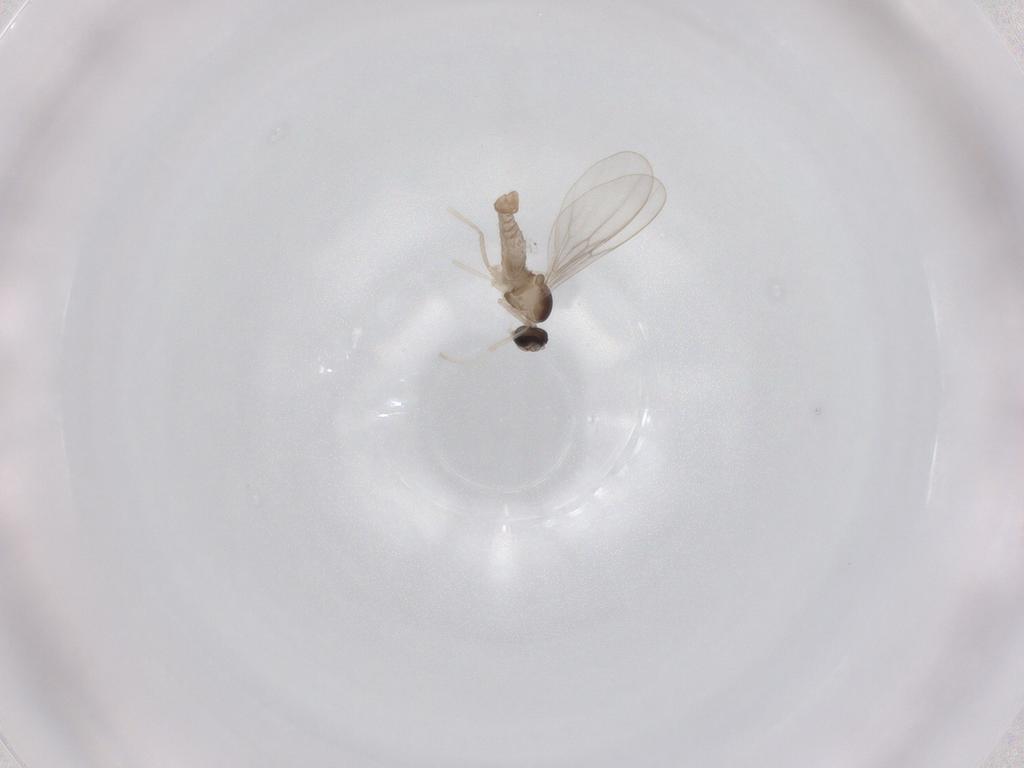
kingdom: Animalia
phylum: Arthropoda
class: Insecta
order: Diptera
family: Cecidomyiidae
